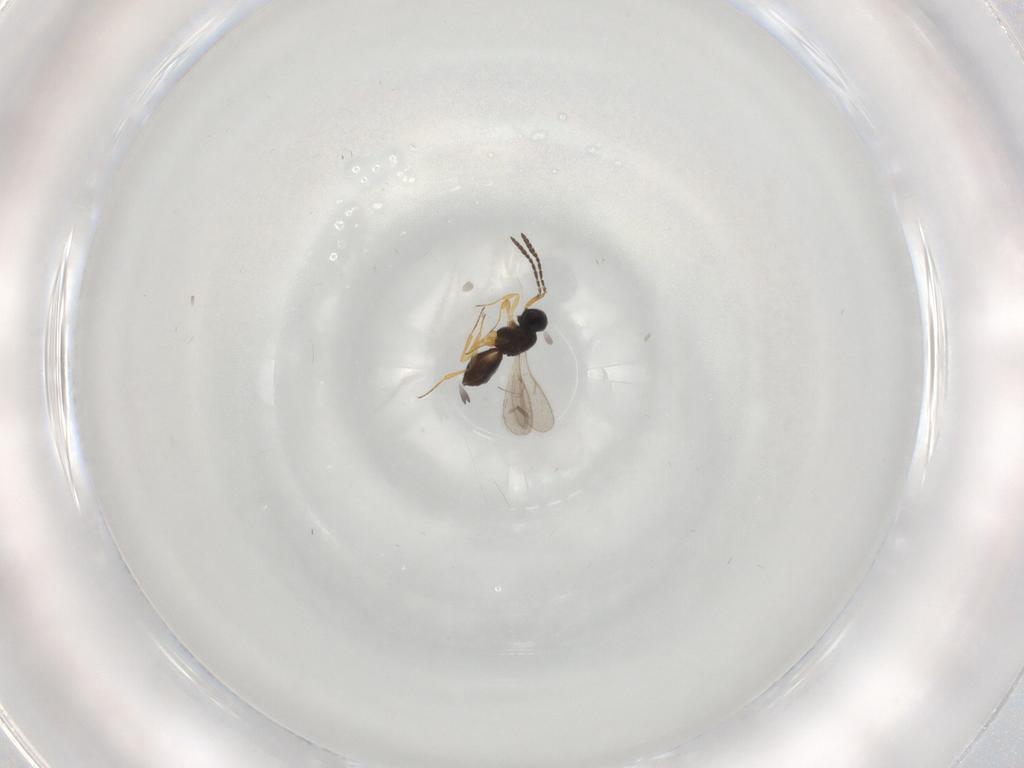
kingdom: Animalia
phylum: Arthropoda
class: Insecta
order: Hymenoptera
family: Scelionidae
